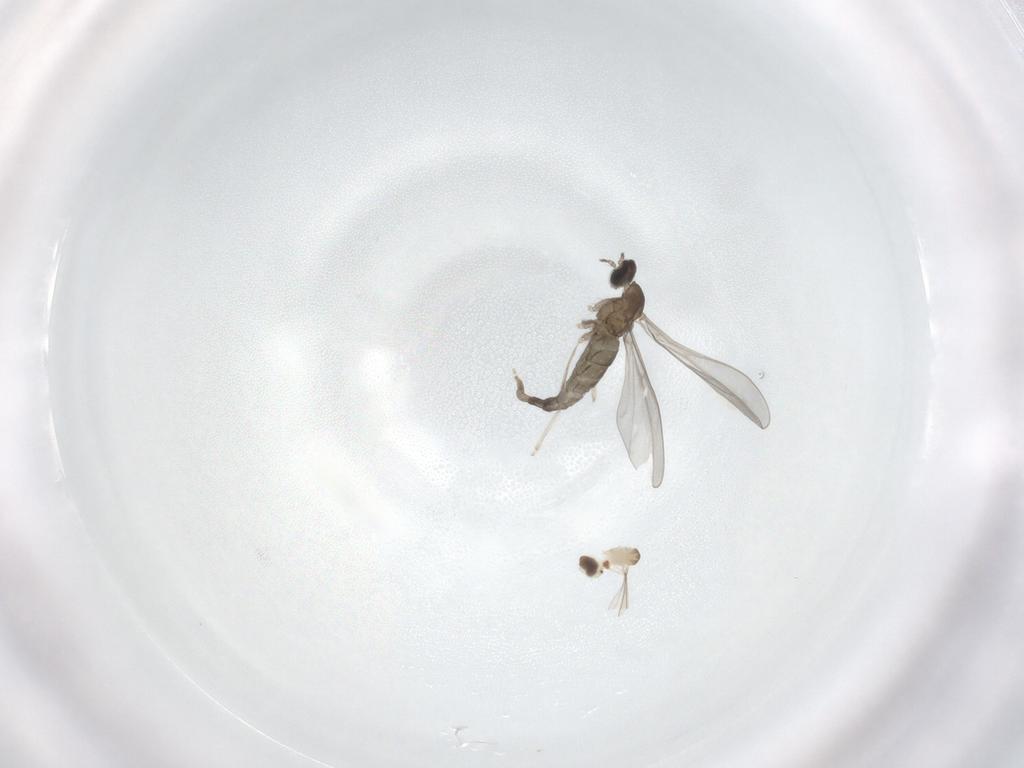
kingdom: Animalia
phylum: Arthropoda
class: Insecta
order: Diptera
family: Cecidomyiidae
